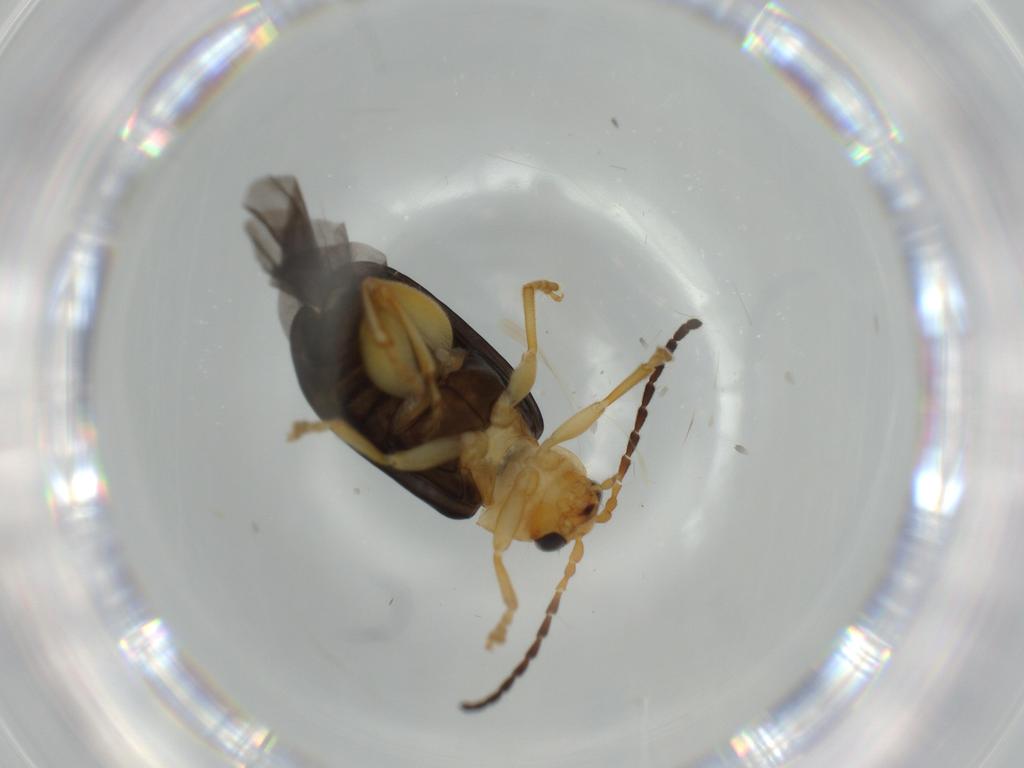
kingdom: Animalia
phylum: Arthropoda
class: Insecta
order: Coleoptera
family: Chrysomelidae
